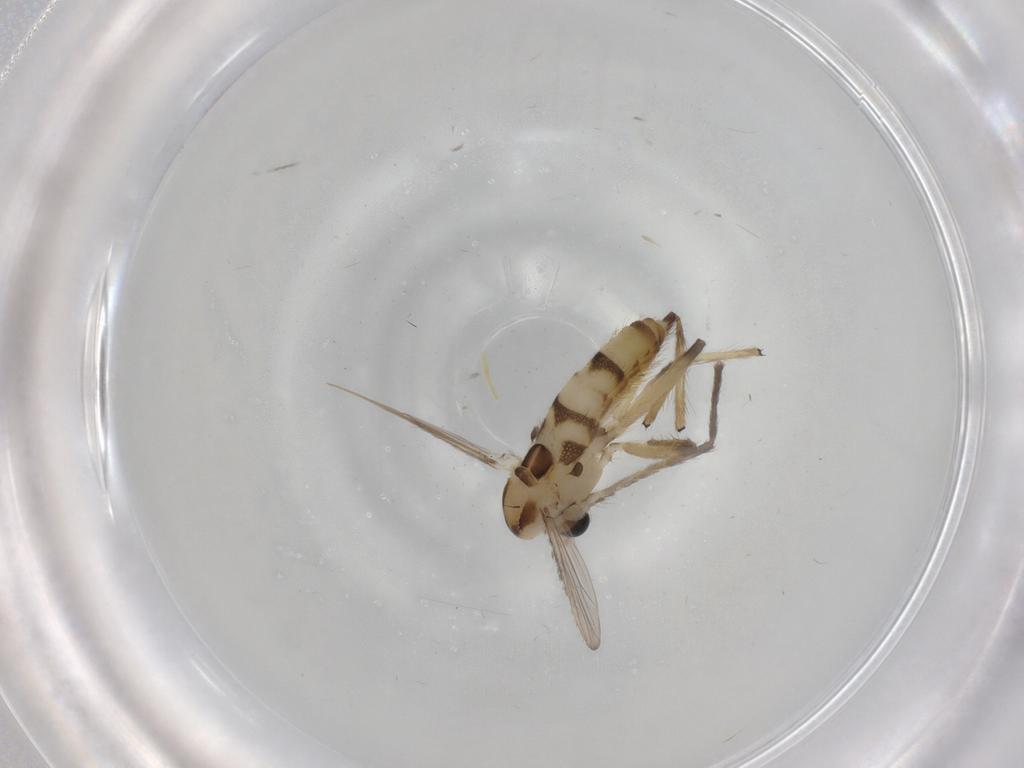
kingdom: Animalia
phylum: Arthropoda
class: Insecta
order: Diptera
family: Chironomidae
